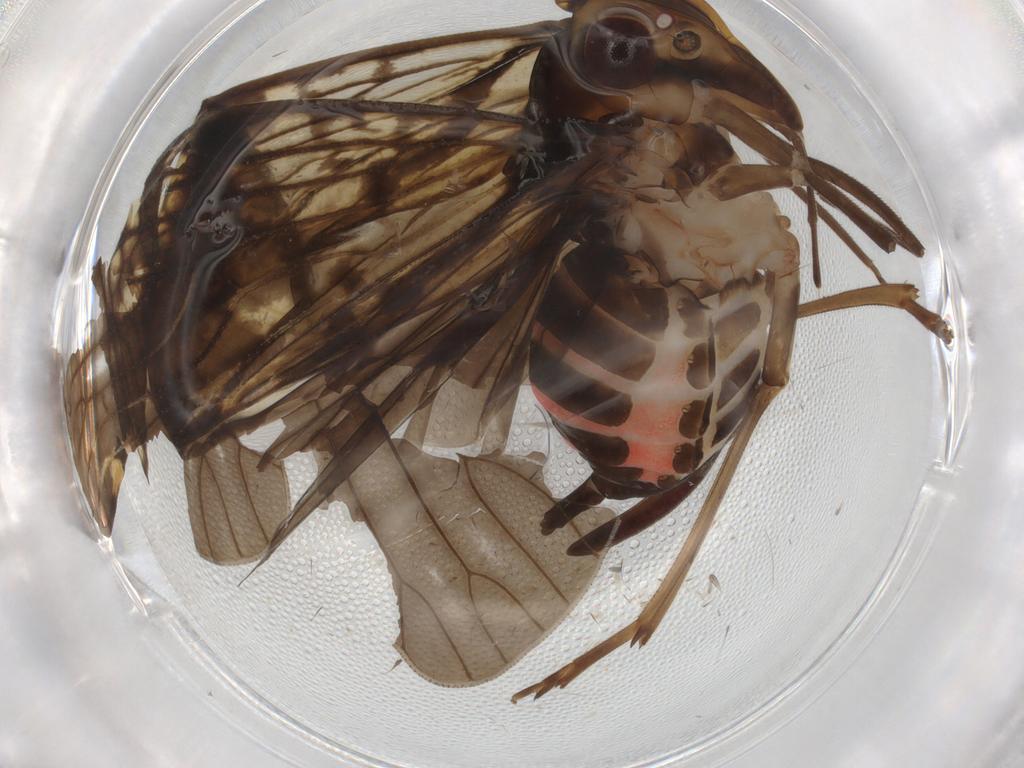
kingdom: Animalia
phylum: Arthropoda
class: Insecta
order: Hemiptera
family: Cixiidae
